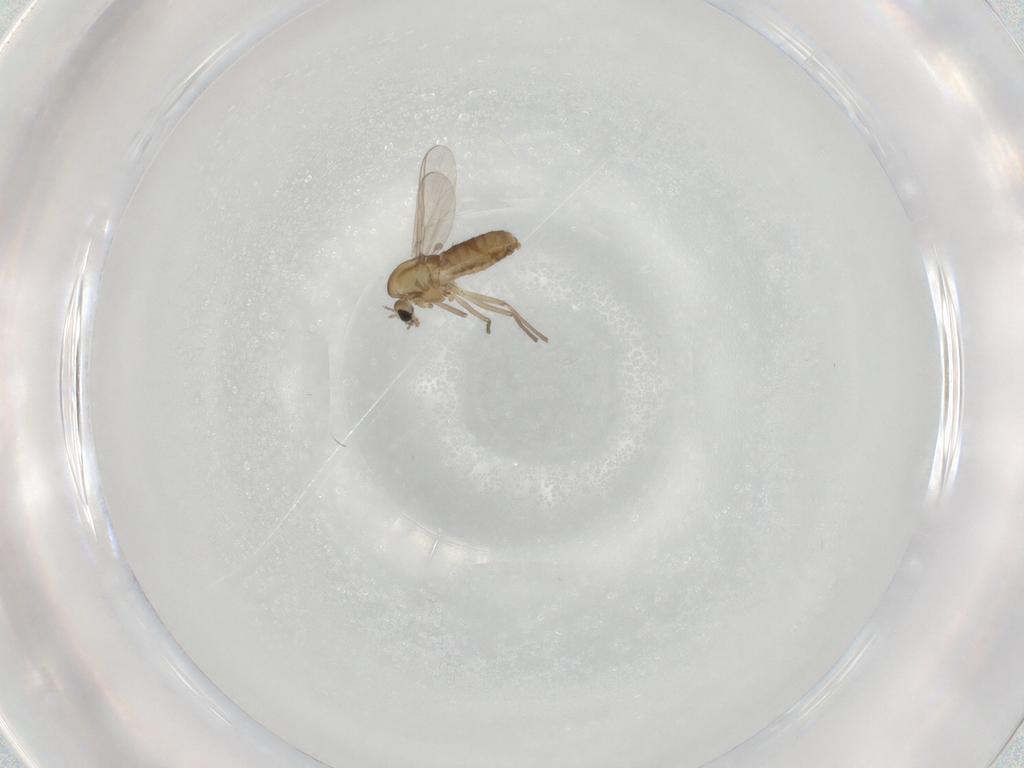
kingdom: Animalia
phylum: Arthropoda
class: Insecta
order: Diptera
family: Chironomidae
